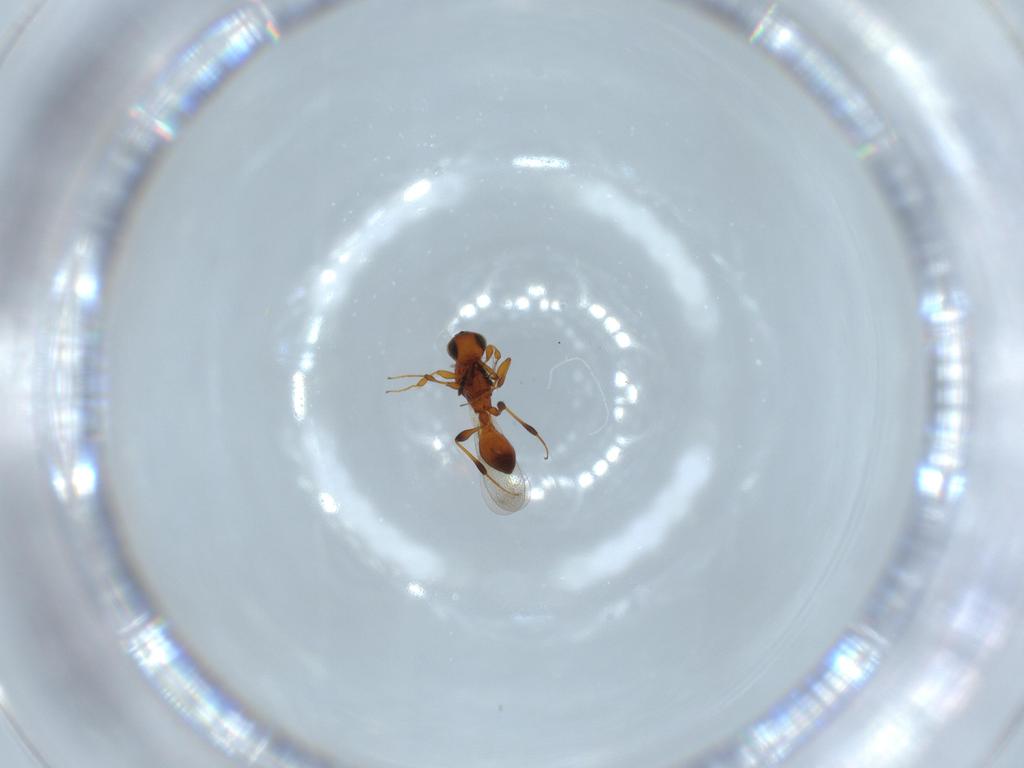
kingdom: Animalia
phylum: Arthropoda
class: Insecta
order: Hymenoptera
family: Platygastridae
